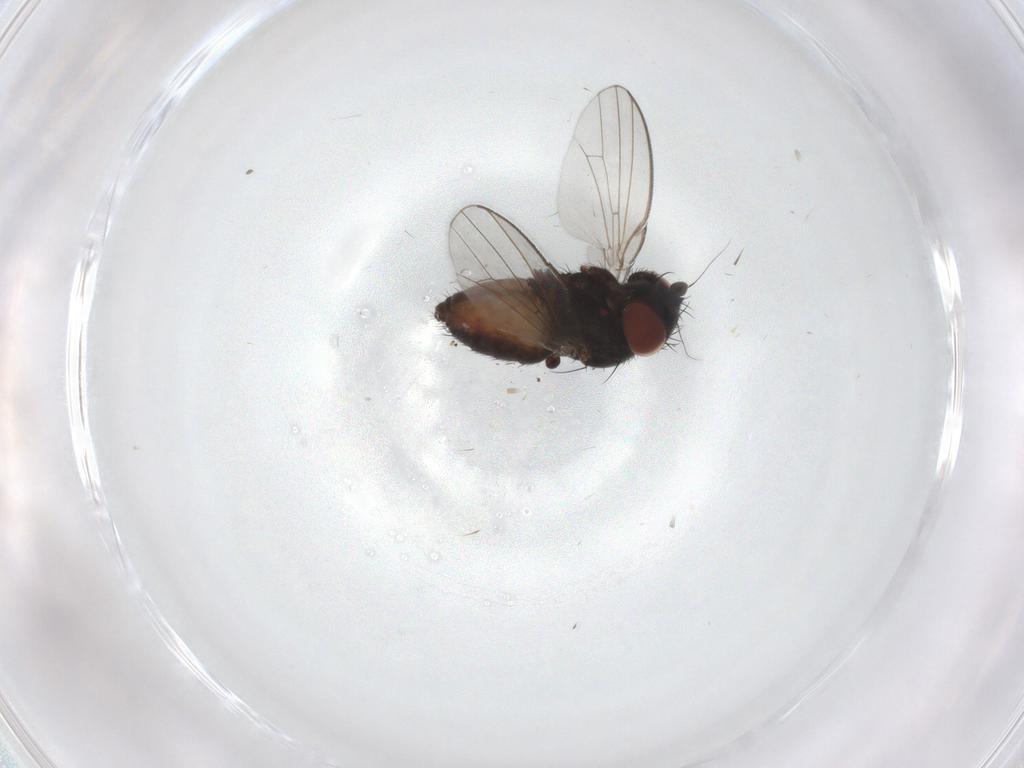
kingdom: Animalia
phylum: Arthropoda
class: Insecta
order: Diptera
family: Milichiidae
